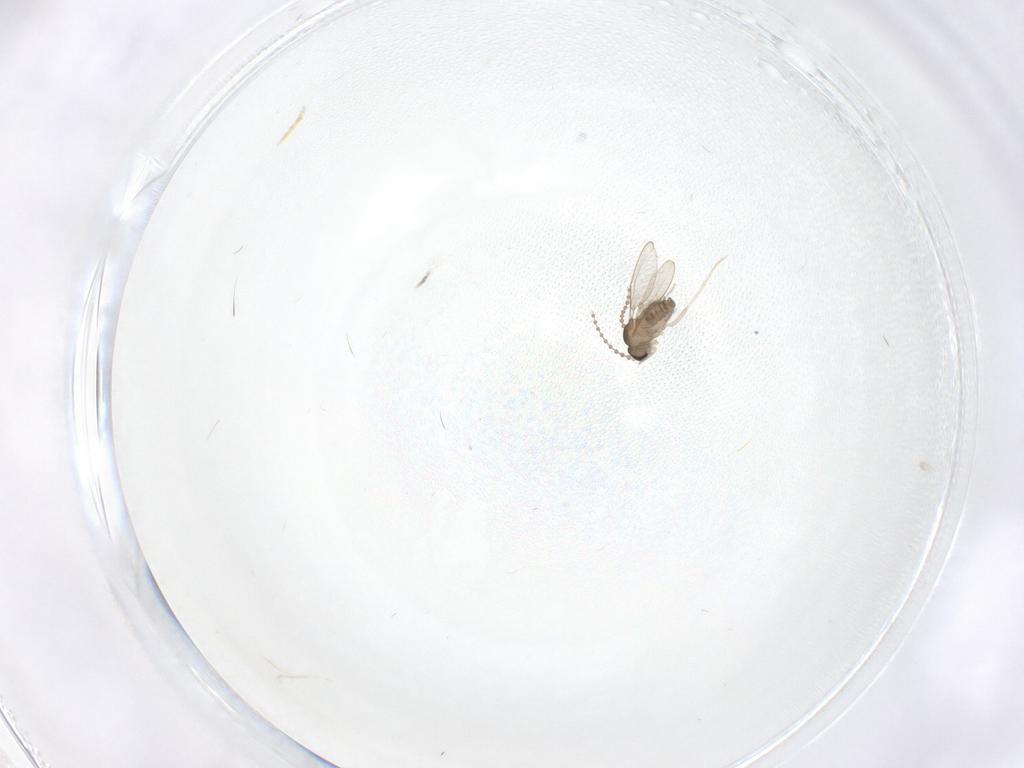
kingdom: Animalia
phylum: Arthropoda
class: Insecta
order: Diptera
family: Cecidomyiidae
